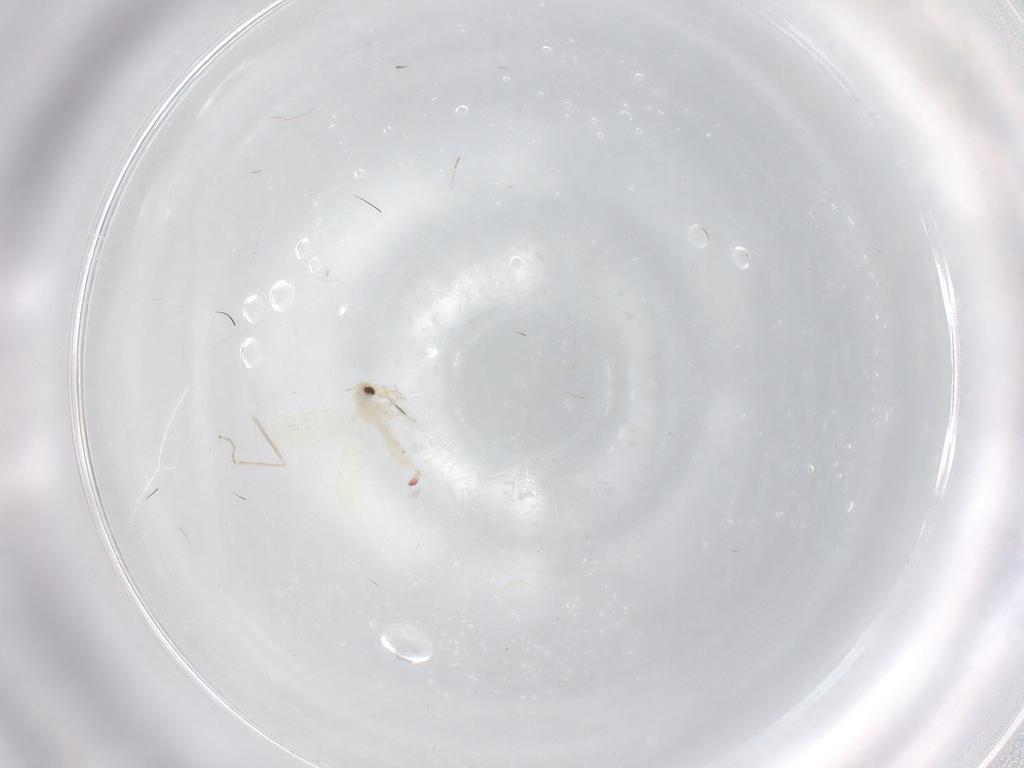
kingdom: Animalia
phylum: Arthropoda
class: Insecta
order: Hemiptera
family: Aleyrodidae
